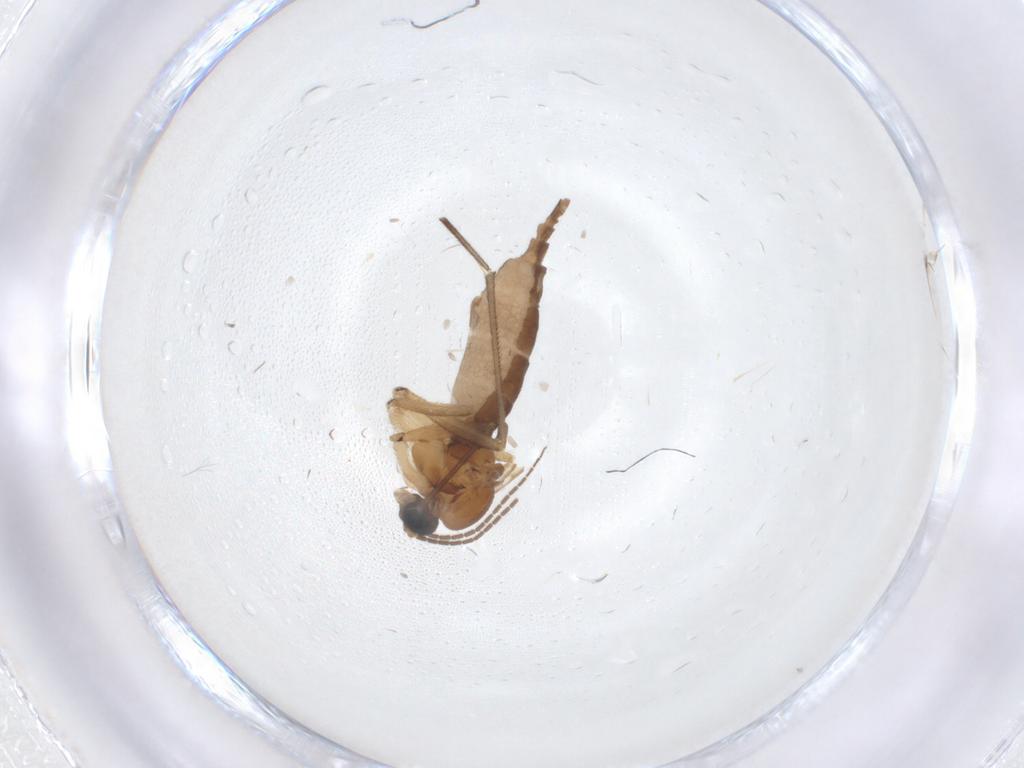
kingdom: Animalia
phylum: Arthropoda
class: Insecta
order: Diptera
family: Sciaridae
